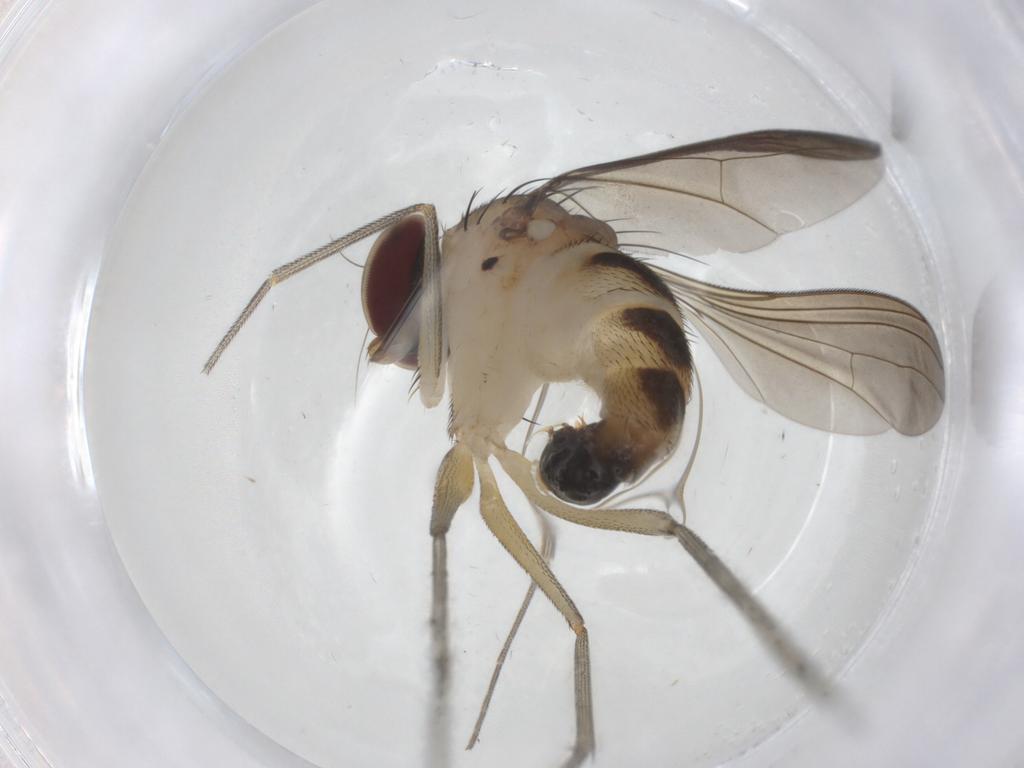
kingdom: Animalia
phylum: Arthropoda
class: Insecta
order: Diptera
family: Dolichopodidae
